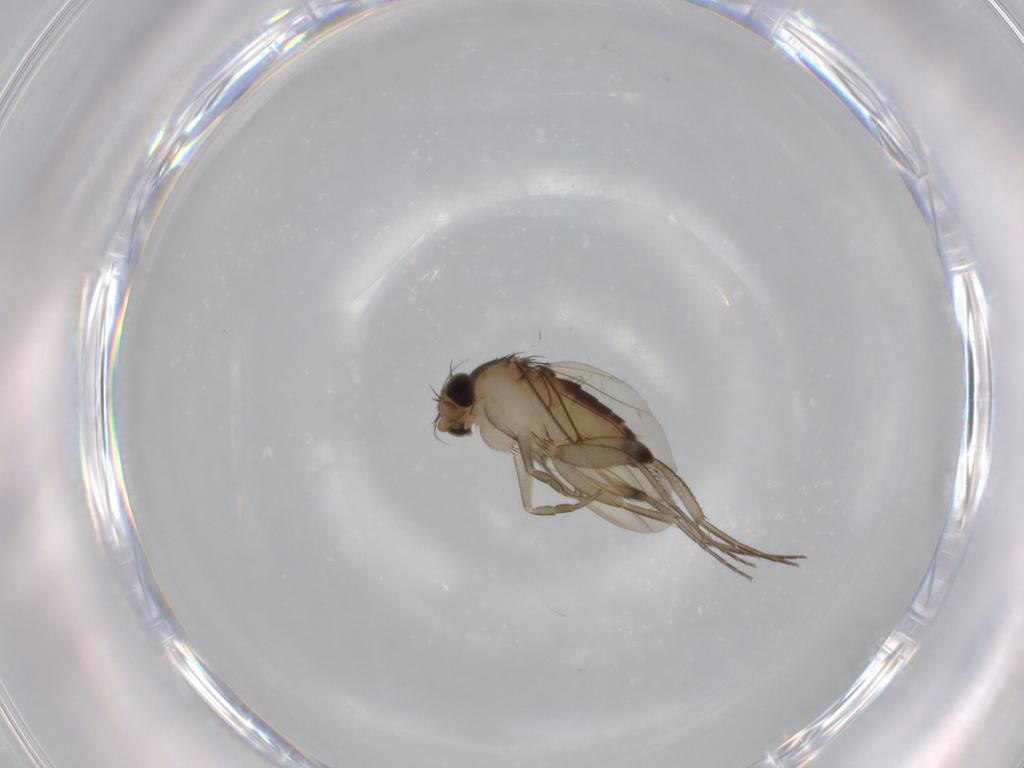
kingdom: Animalia
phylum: Arthropoda
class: Insecta
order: Diptera
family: Phoridae
